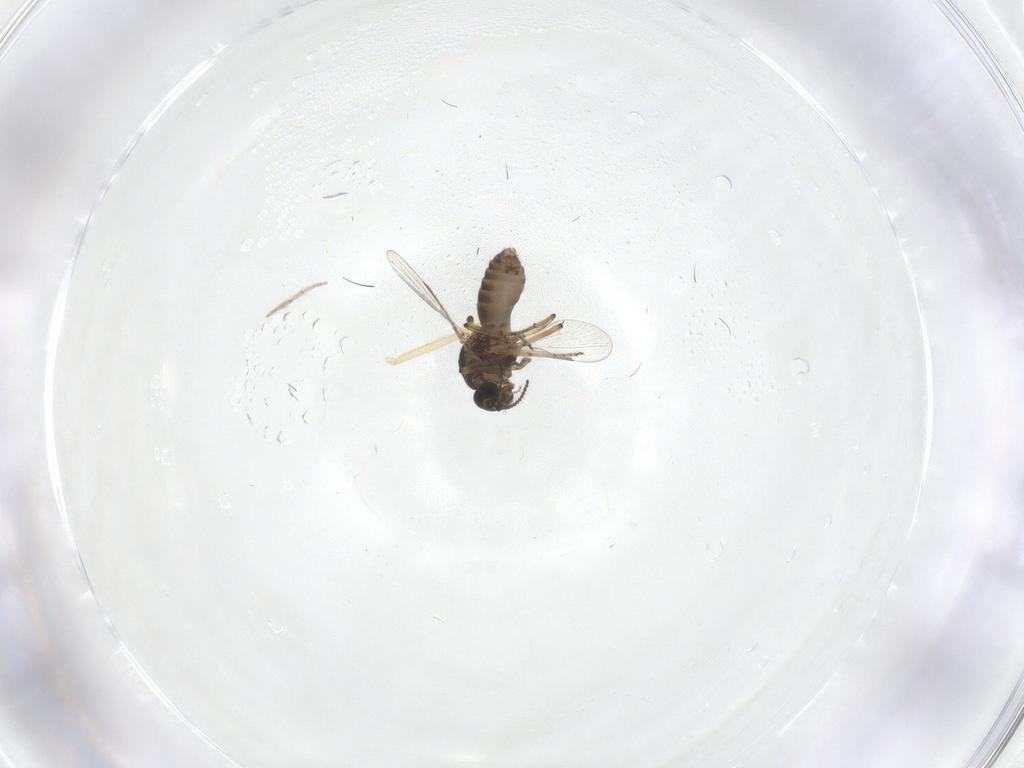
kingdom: Animalia
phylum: Arthropoda
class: Insecta
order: Diptera
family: Ceratopogonidae
